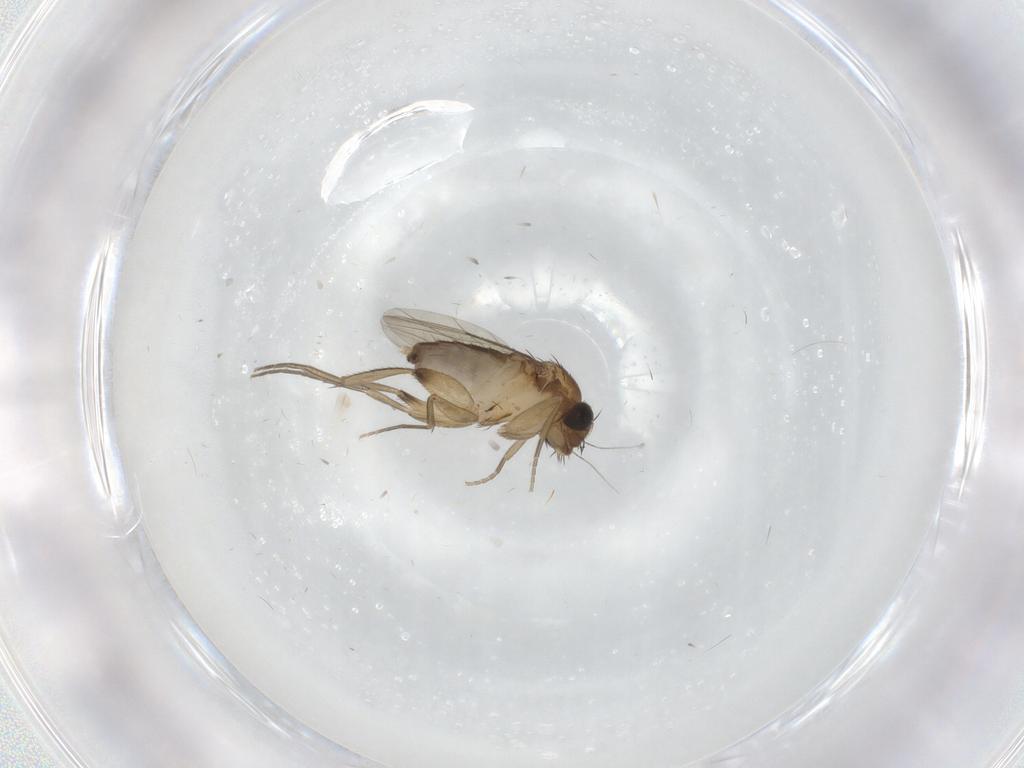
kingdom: Animalia
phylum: Arthropoda
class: Insecta
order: Diptera
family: Phoridae
